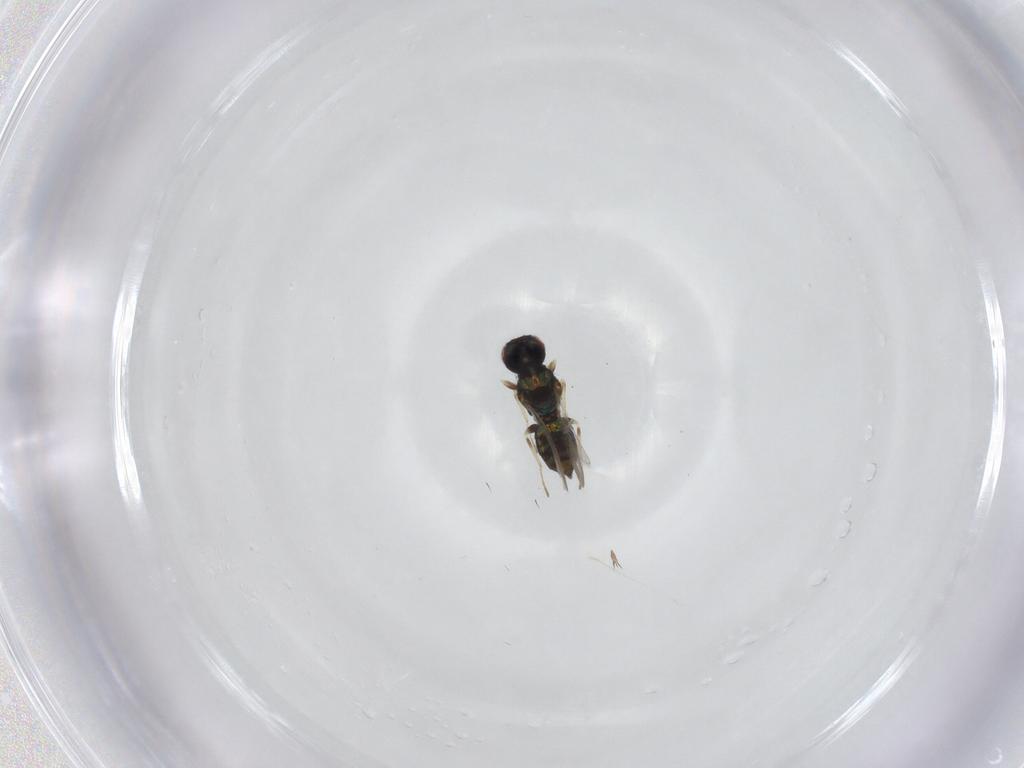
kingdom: Animalia
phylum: Arthropoda
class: Insecta
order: Hymenoptera
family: Eulophidae
